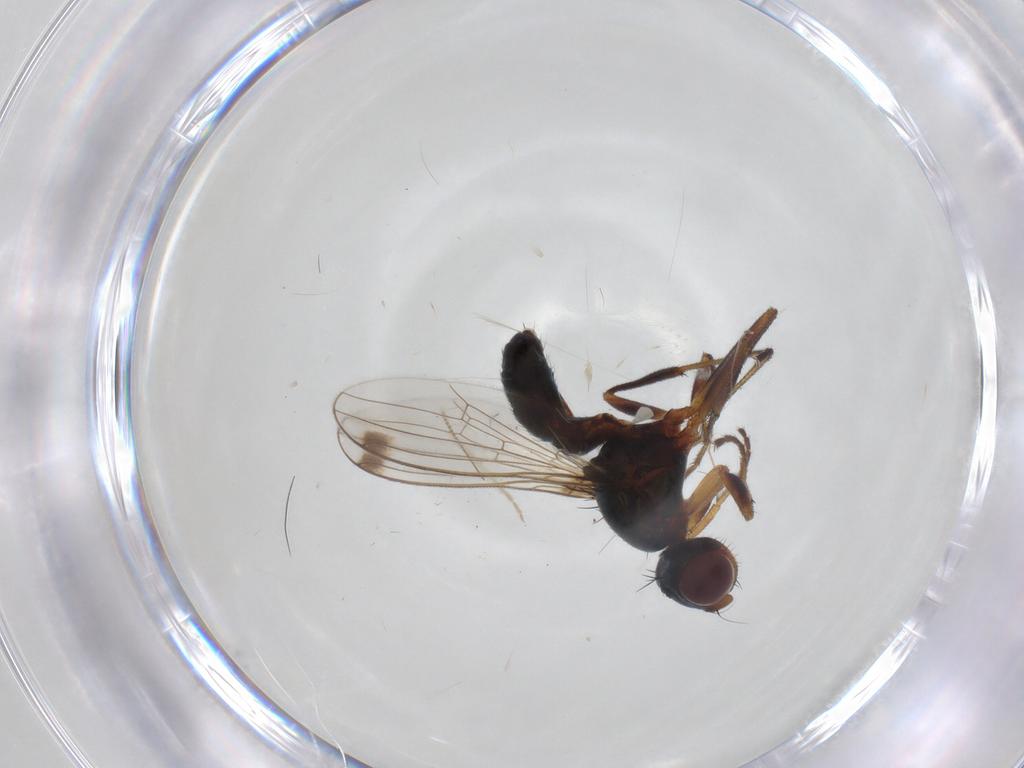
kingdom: Animalia
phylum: Arthropoda
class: Insecta
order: Diptera
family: Sepsidae
